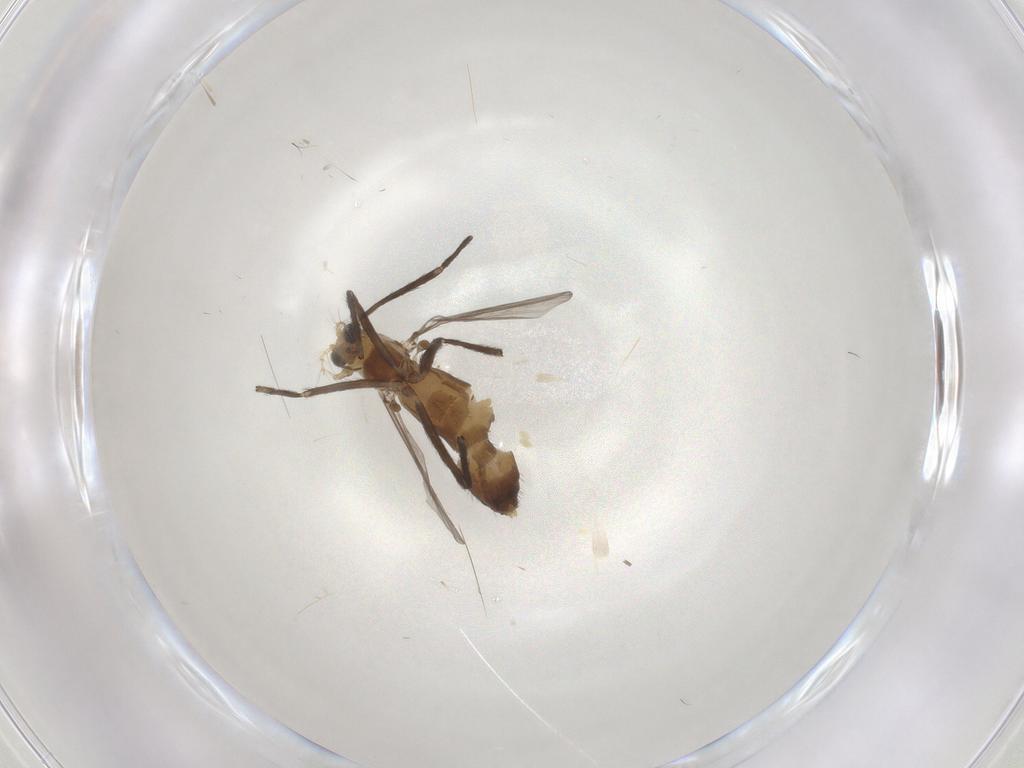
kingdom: Animalia
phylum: Arthropoda
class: Insecta
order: Diptera
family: Chironomidae
